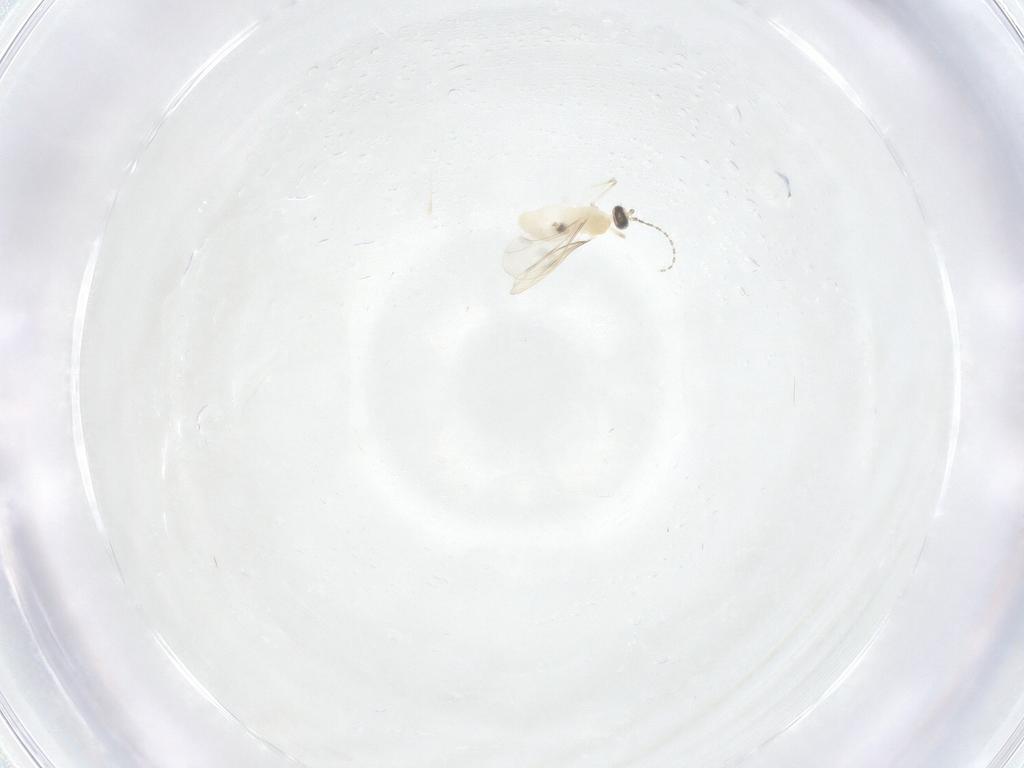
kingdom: Animalia
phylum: Arthropoda
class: Insecta
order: Diptera
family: Cecidomyiidae
